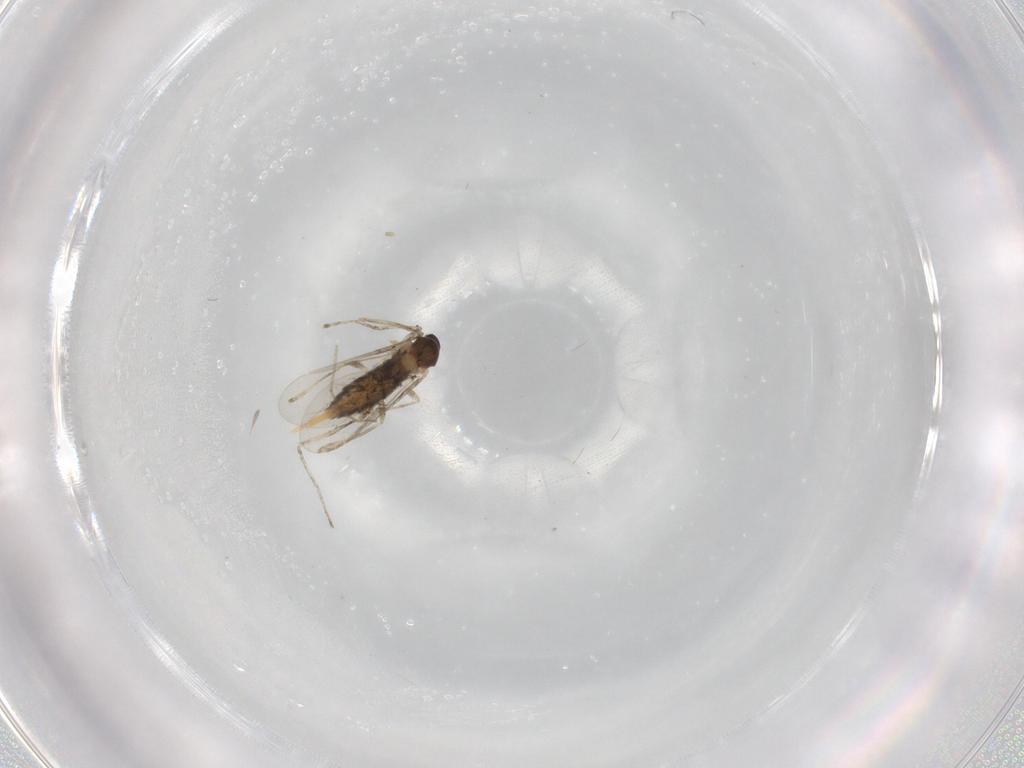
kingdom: Animalia
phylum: Arthropoda
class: Insecta
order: Diptera
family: Cecidomyiidae
